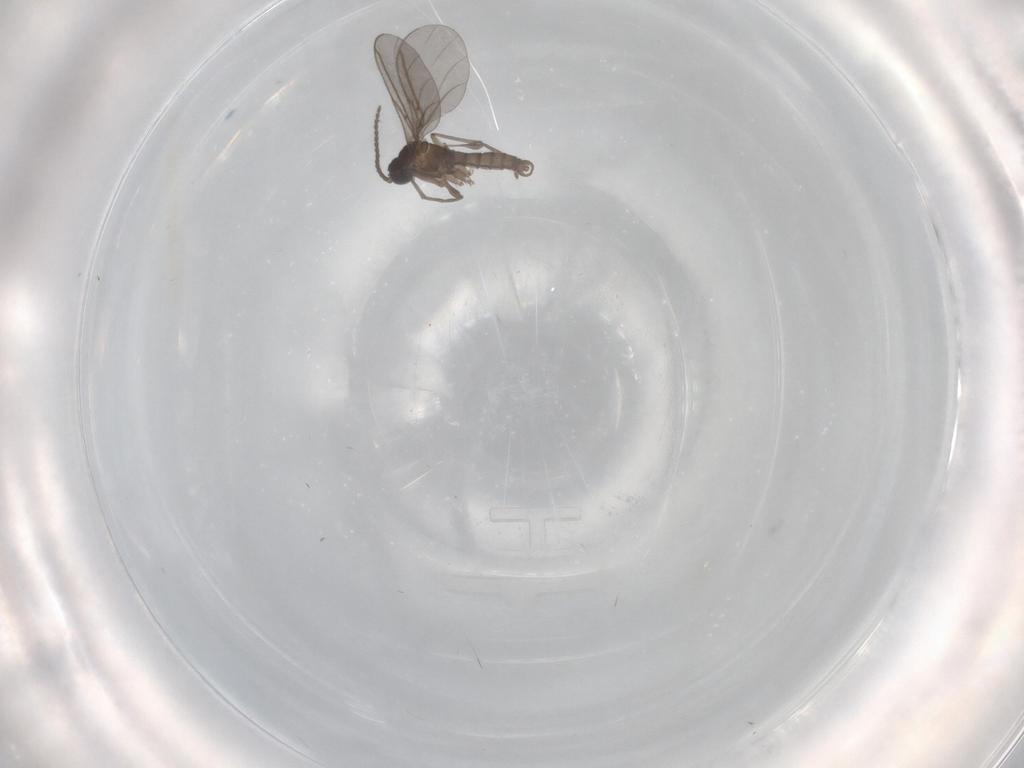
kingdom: Animalia
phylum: Arthropoda
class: Insecta
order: Diptera
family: Sciaridae
